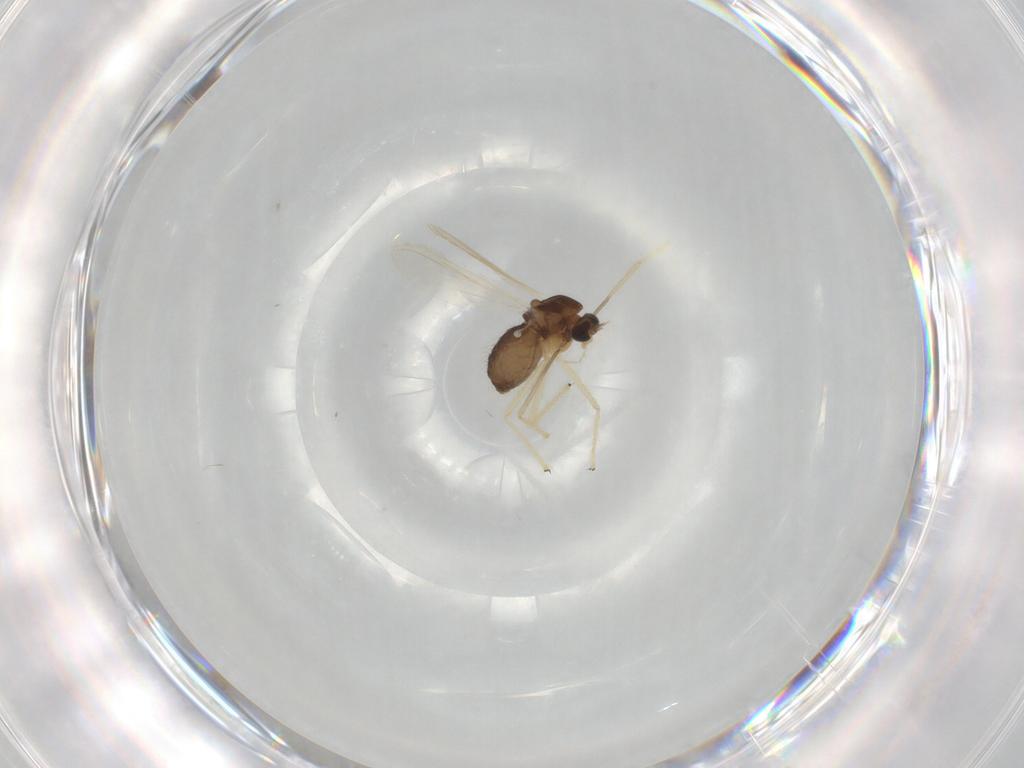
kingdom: Animalia
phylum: Arthropoda
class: Insecta
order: Diptera
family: Chironomidae
